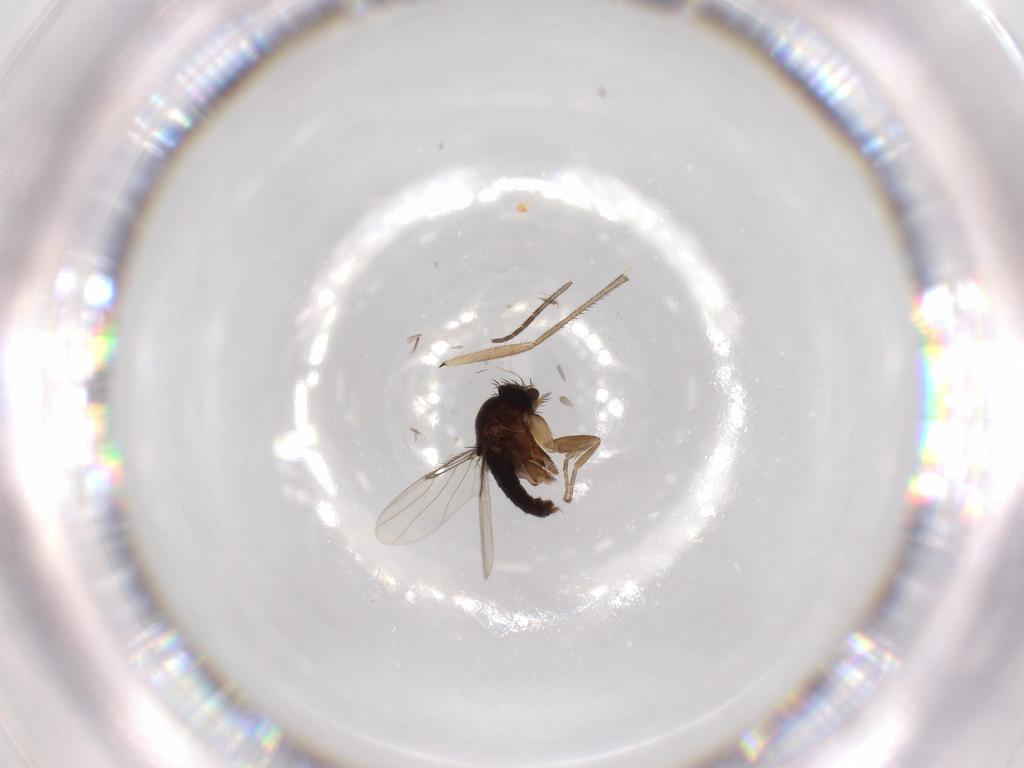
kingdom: Animalia
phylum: Arthropoda
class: Insecta
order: Diptera
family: Phoridae
